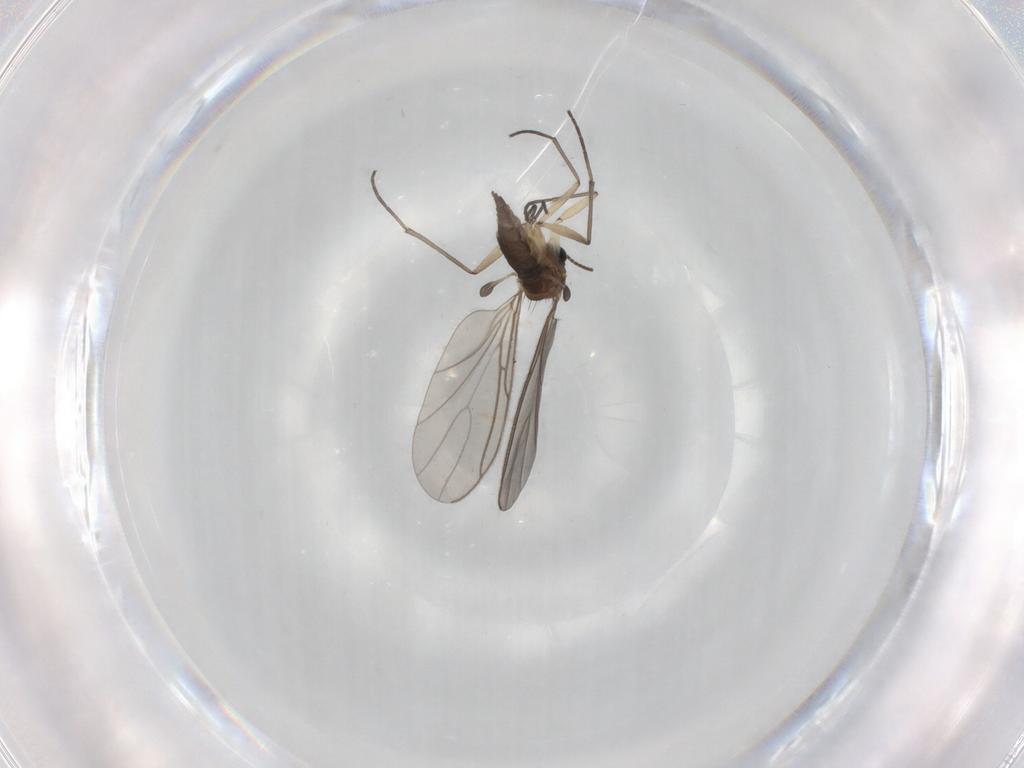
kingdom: Animalia
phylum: Arthropoda
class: Insecta
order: Diptera
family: Sciaridae
